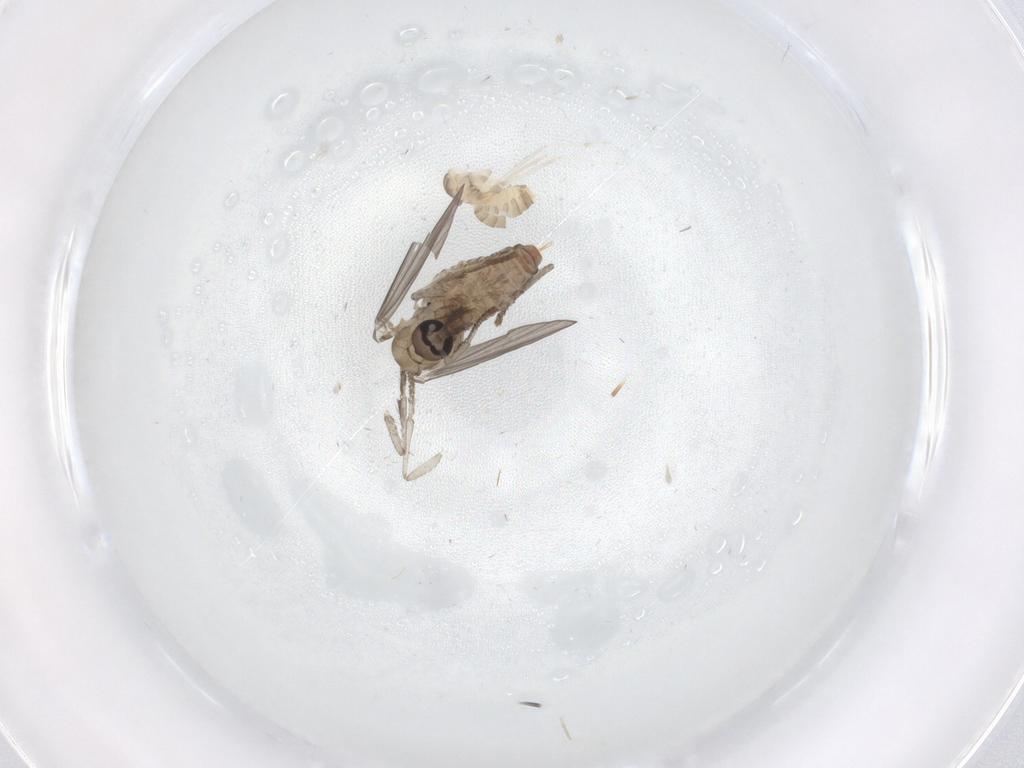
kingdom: Animalia
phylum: Arthropoda
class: Insecta
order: Diptera
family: Cecidomyiidae
